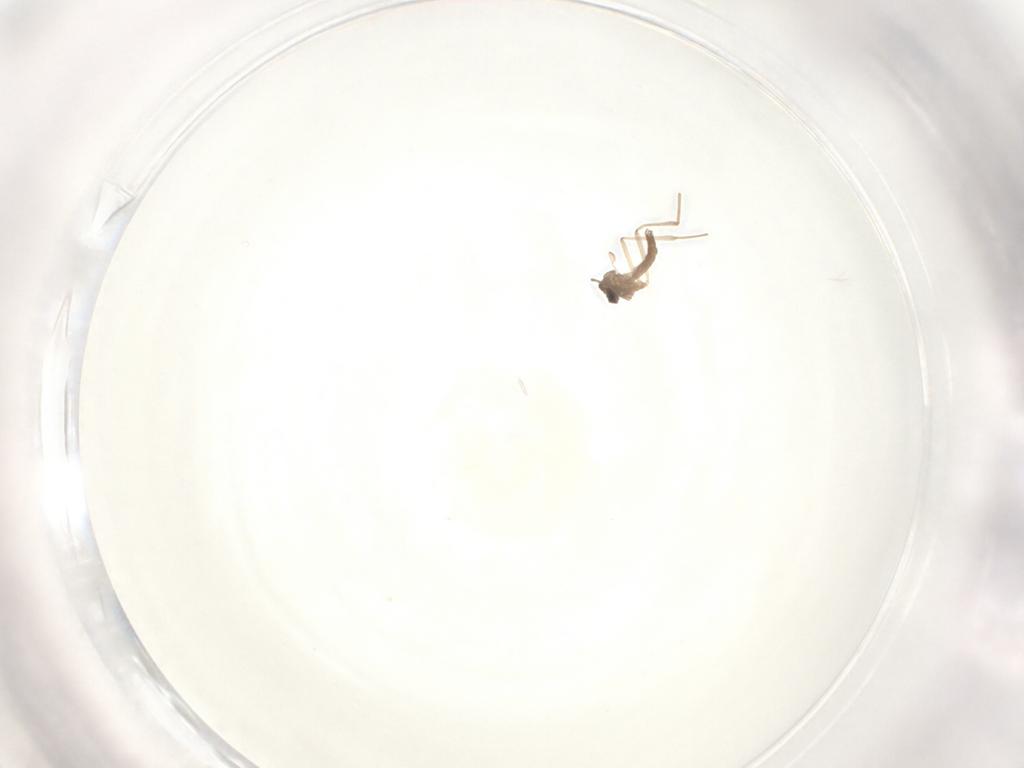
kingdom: Animalia
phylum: Arthropoda
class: Insecta
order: Diptera
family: Cecidomyiidae
